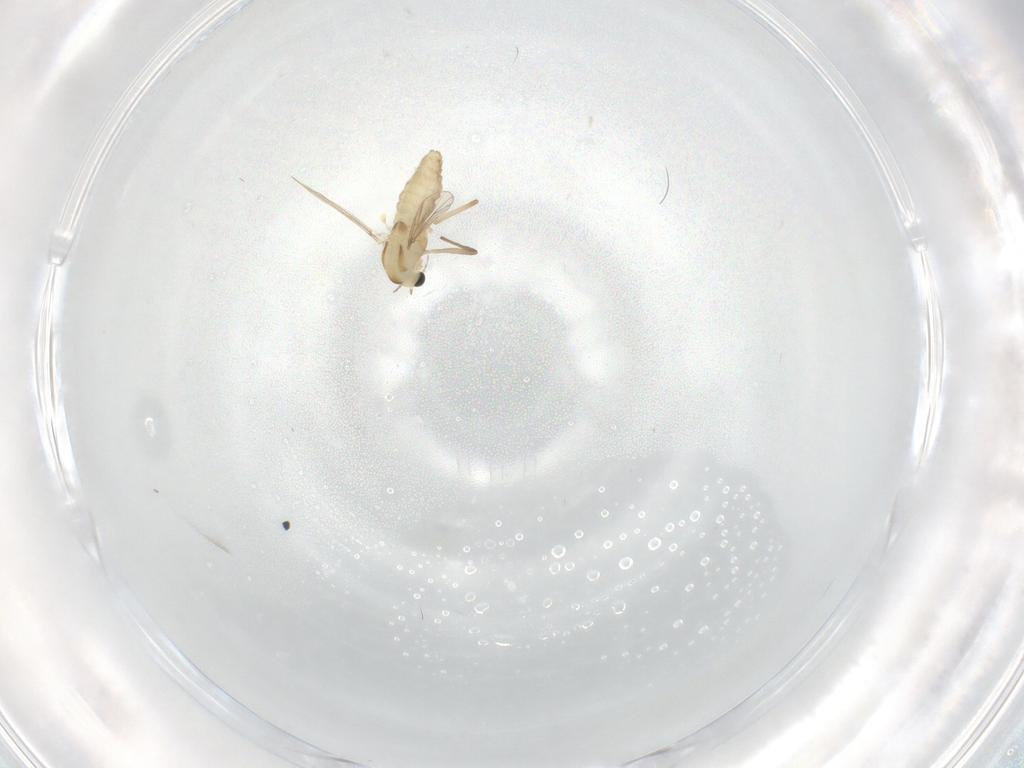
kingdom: Animalia
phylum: Arthropoda
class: Insecta
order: Diptera
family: Chironomidae
